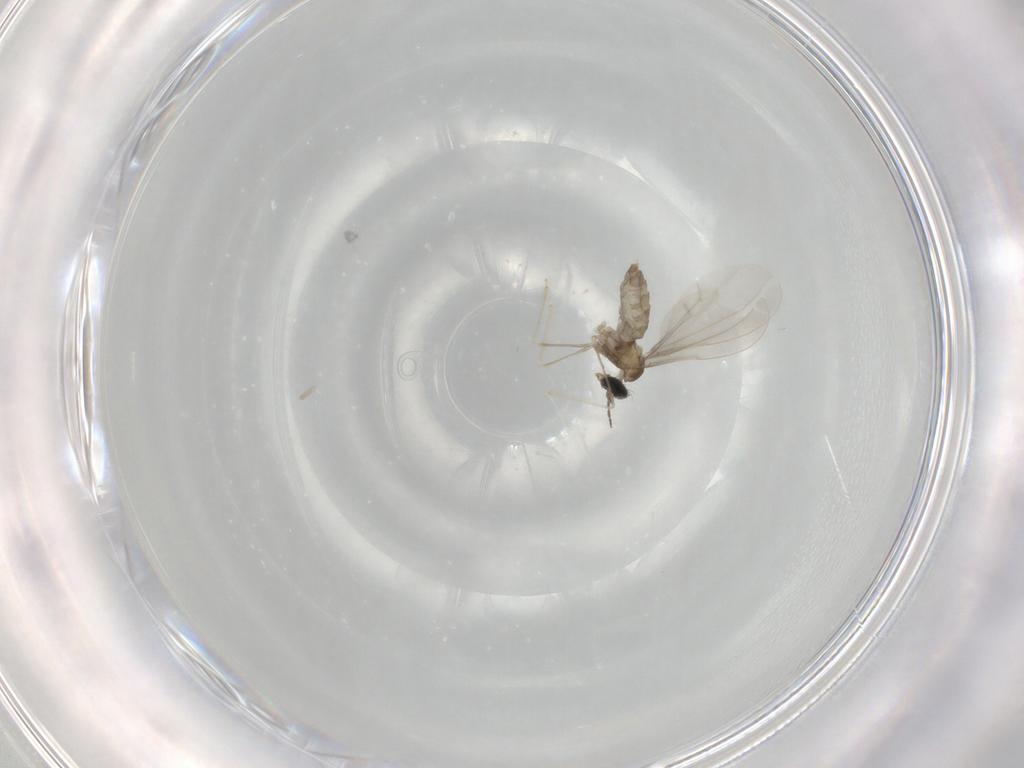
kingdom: Animalia
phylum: Arthropoda
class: Insecta
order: Diptera
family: Cecidomyiidae
